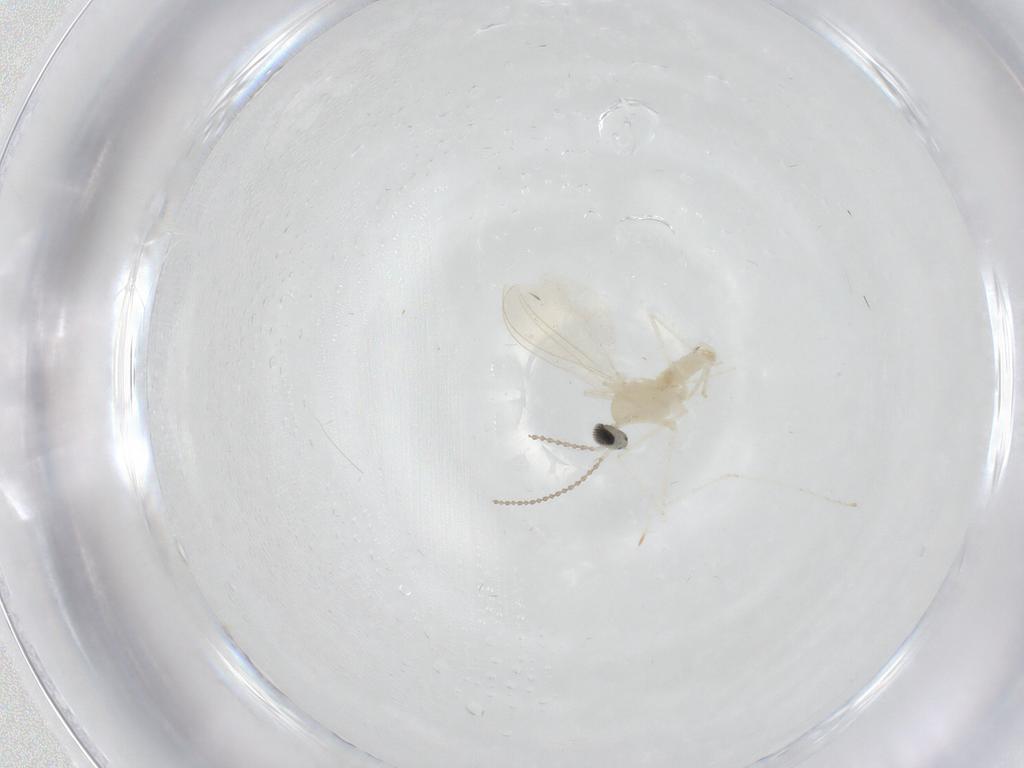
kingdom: Animalia
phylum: Arthropoda
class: Insecta
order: Diptera
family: Cecidomyiidae
